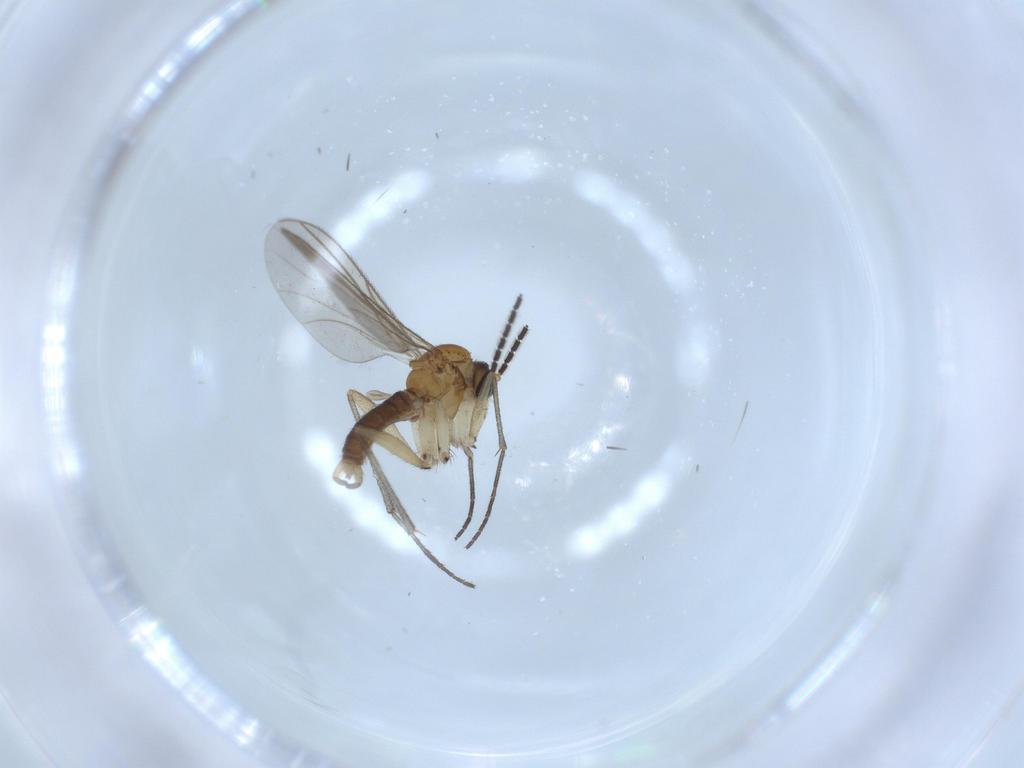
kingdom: Animalia
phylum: Arthropoda
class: Insecta
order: Diptera
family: Sciaridae
